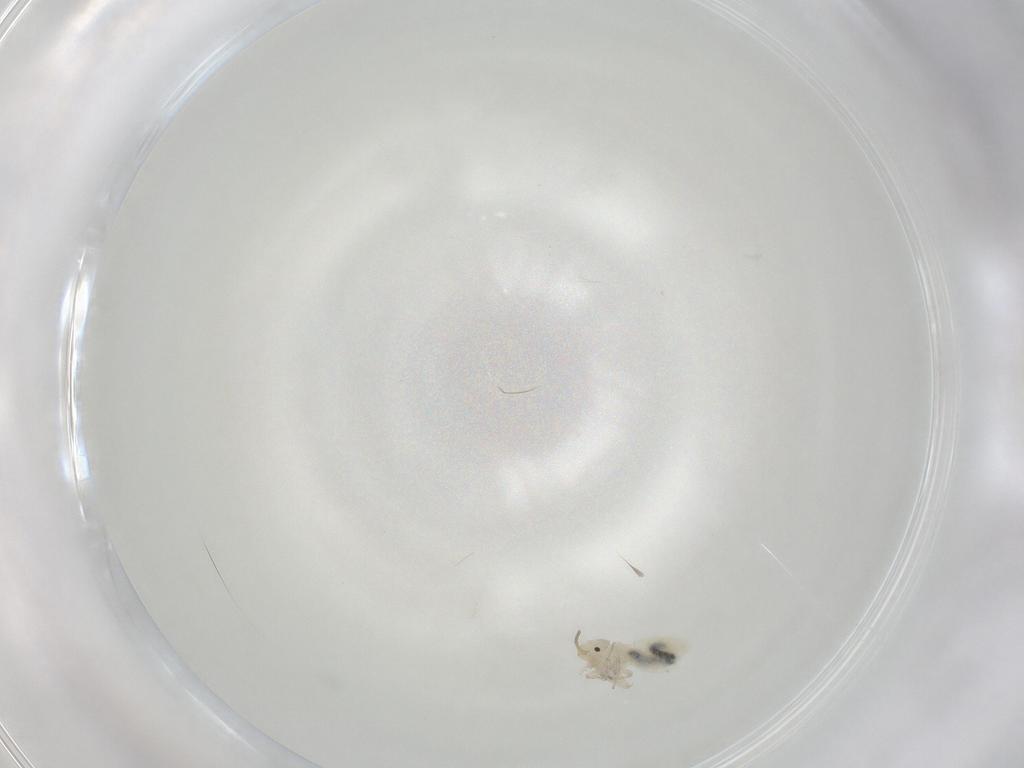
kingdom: Animalia
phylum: Arthropoda
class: Insecta
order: Psocodea
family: Caeciliusidae
